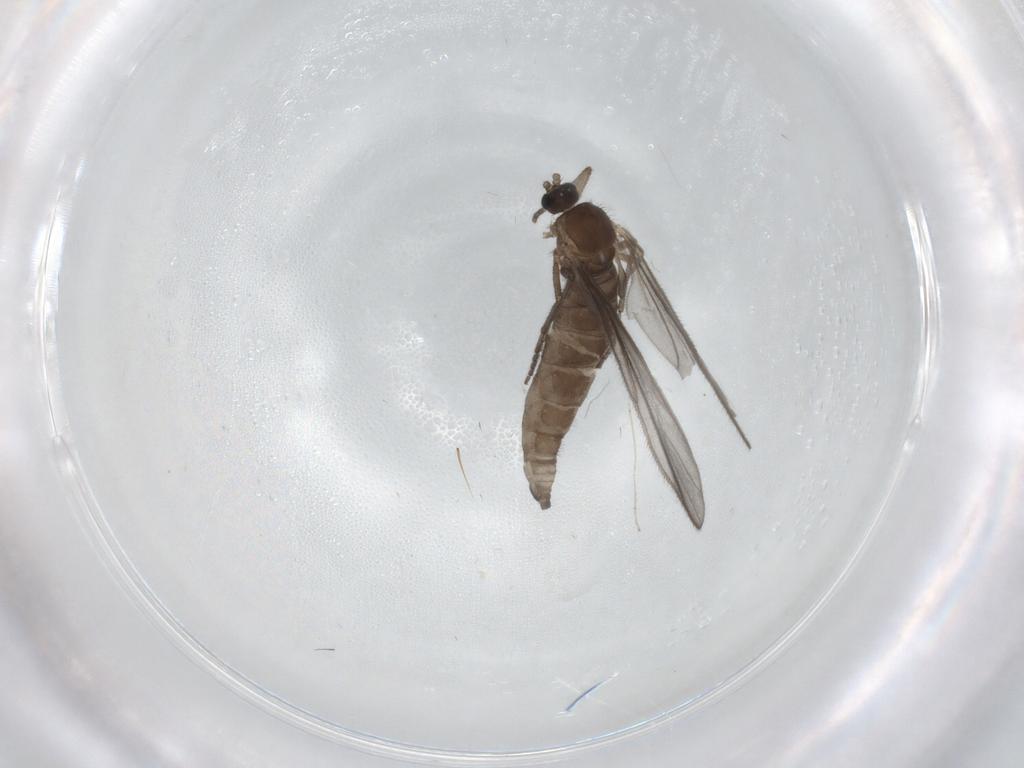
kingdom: Animalia
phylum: Arthropoda
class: Insecta
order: Diptera
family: Sciaridae
